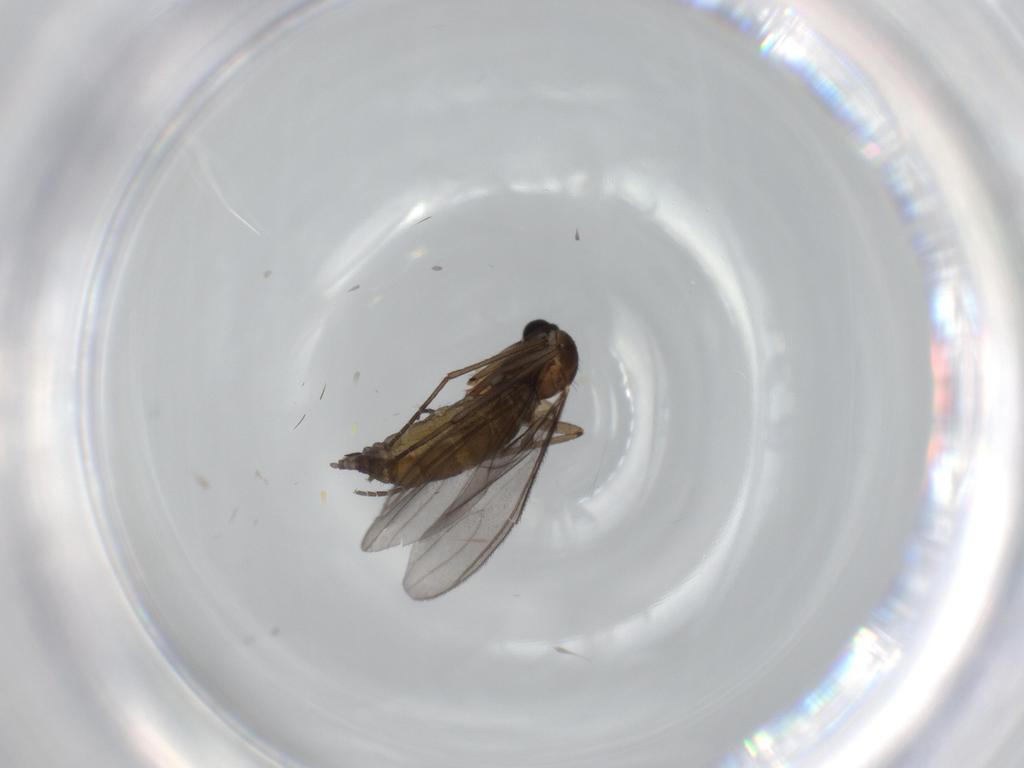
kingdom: Animalia
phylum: Arthropoda
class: Insecta
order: Diptera
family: Sciaridae
